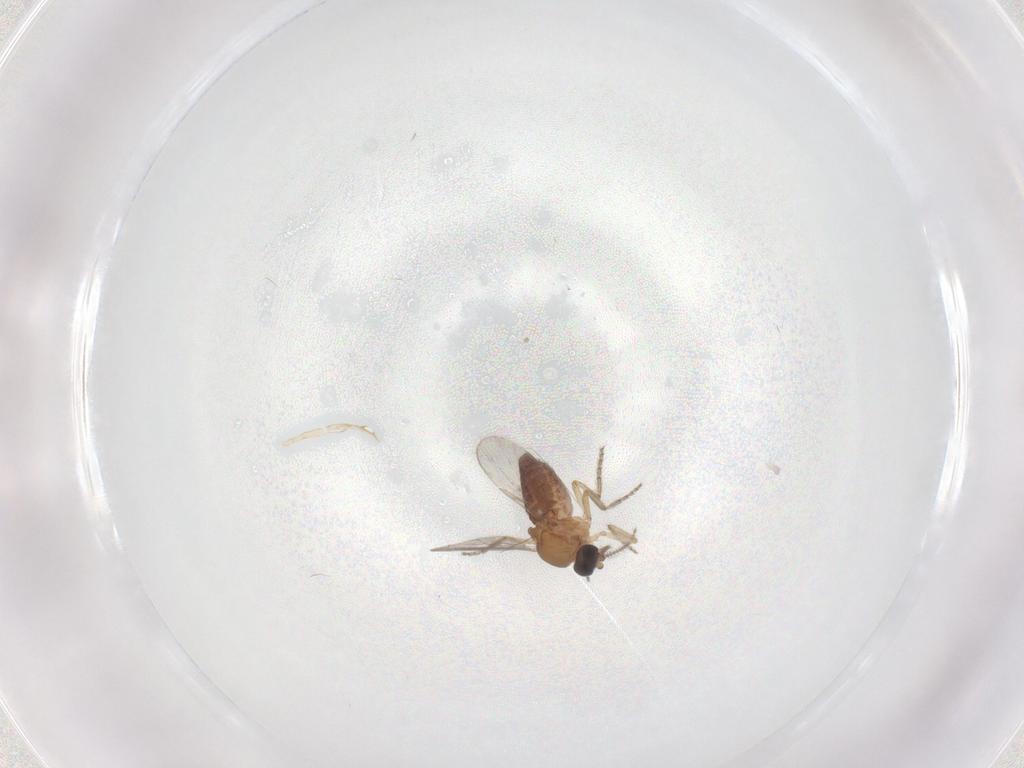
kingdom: Animalia
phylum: Arthropoda
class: Insecta
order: Diptera
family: Ceratopogonidae
